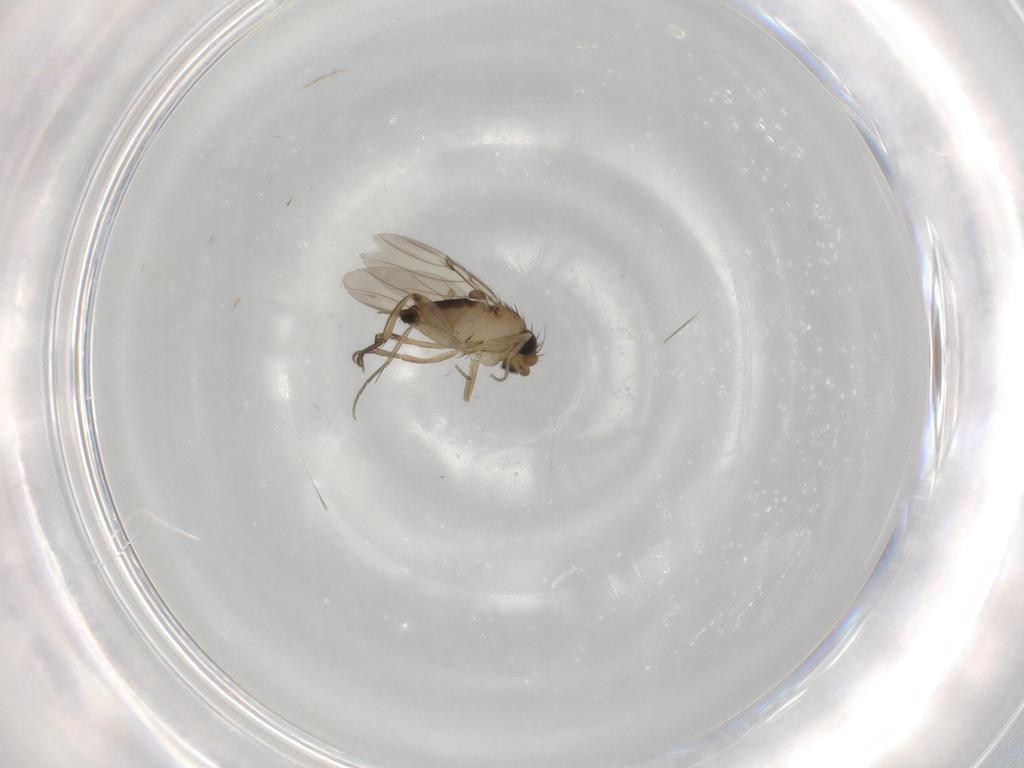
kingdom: Animalia
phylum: Arthropoda
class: Insecta
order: Diptera
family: Phoridae
